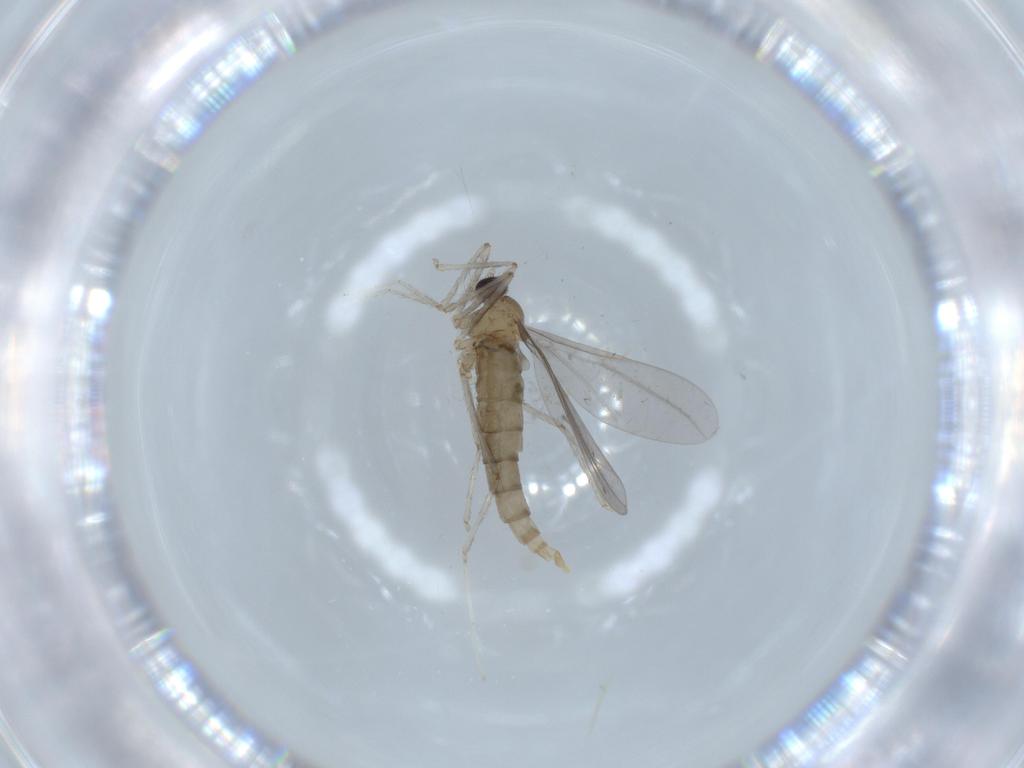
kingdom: Animalia
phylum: Arthropoda
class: Insecta
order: Diptera
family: Cecidomyiidae
